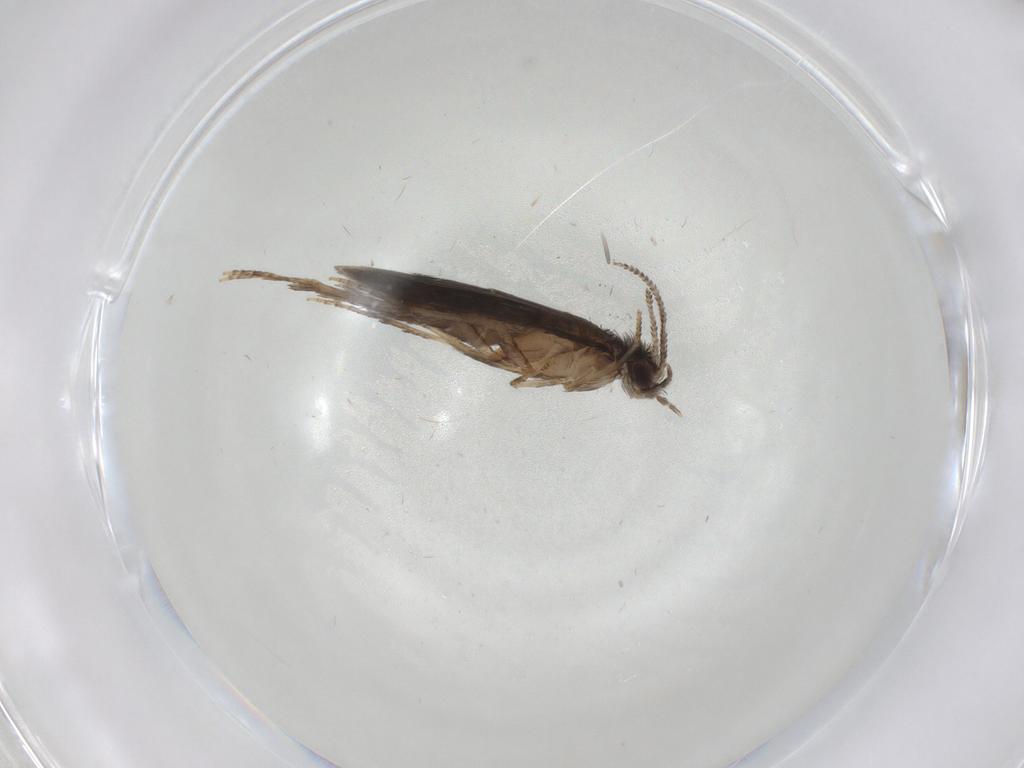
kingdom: Animalia
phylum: Arthropoda
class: Insecta
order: Trichoptera
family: Hydroptilidae
